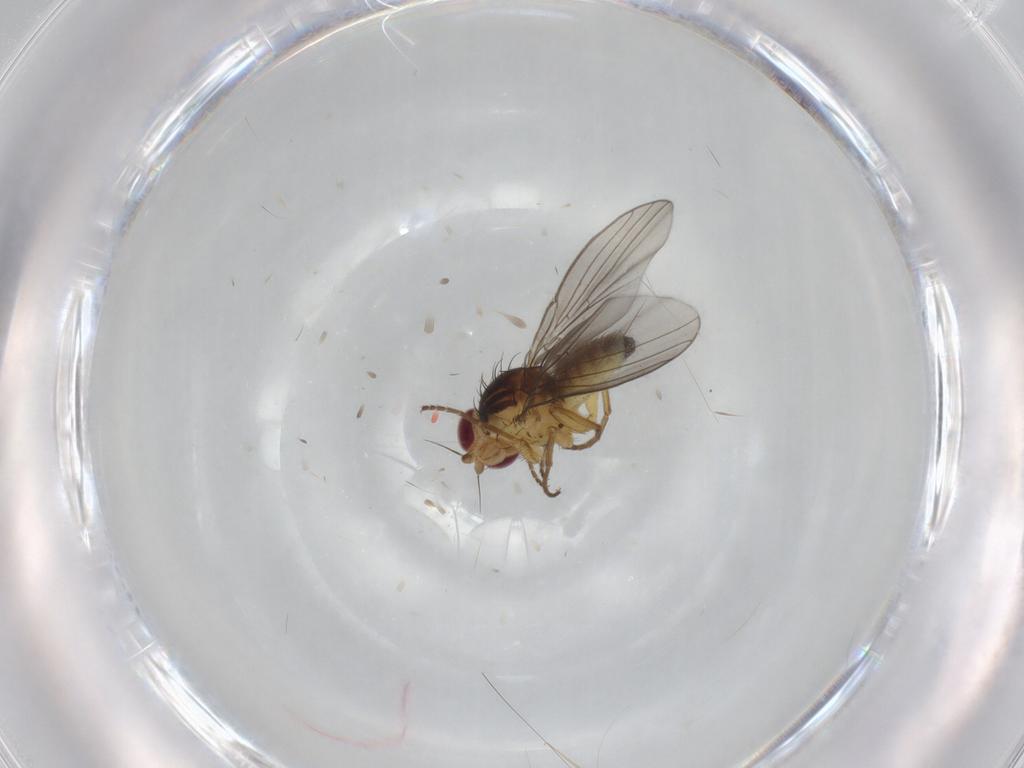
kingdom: Animalia
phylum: Arthropoda
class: Insecta
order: Diptera
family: Agromyzidae
